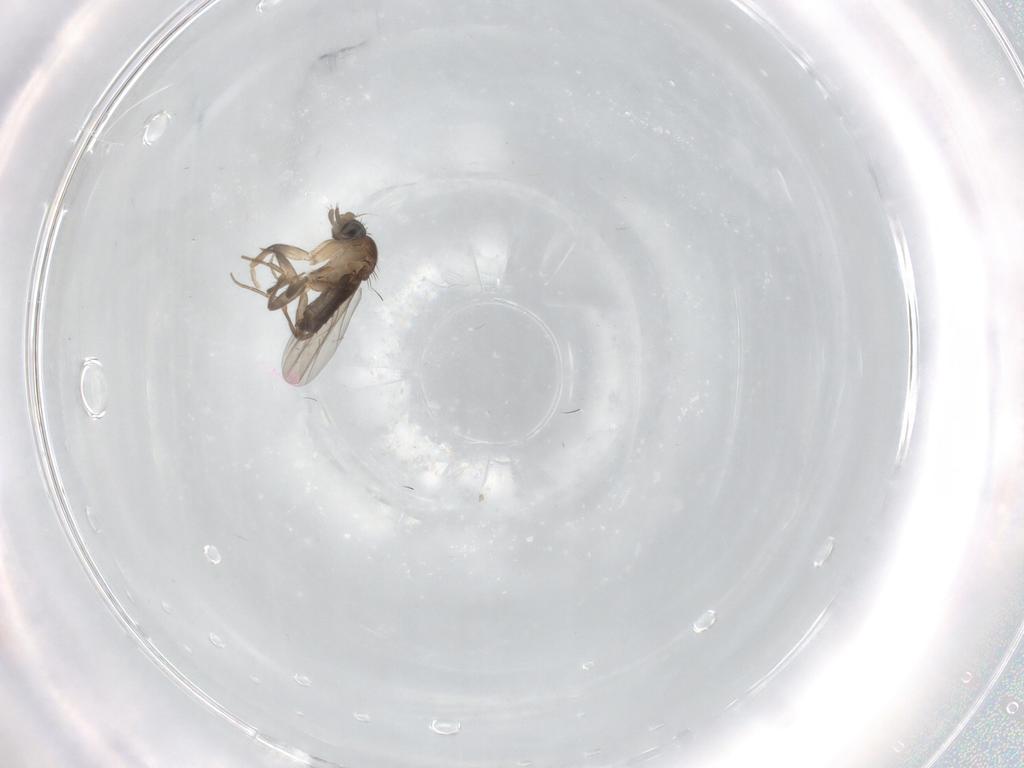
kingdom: Animalia
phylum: Arthropoda
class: Insecta
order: Diptera
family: Phoridae
